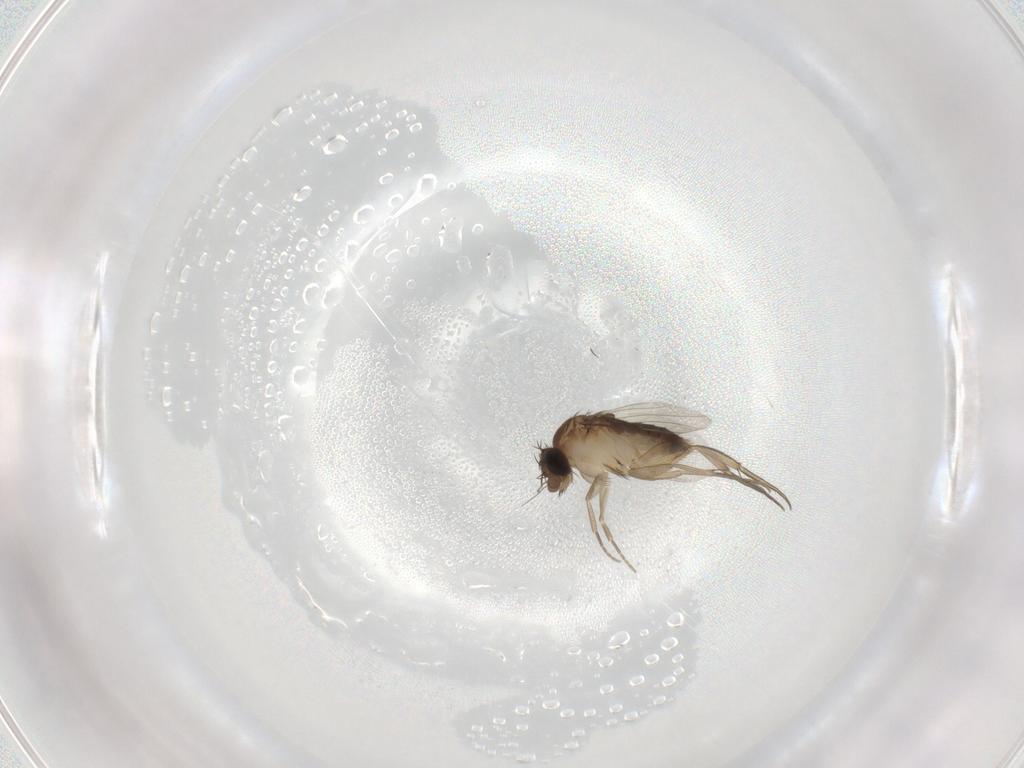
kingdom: Animalia
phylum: Arthropoda
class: Insecta
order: Diptera
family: Phoridae
